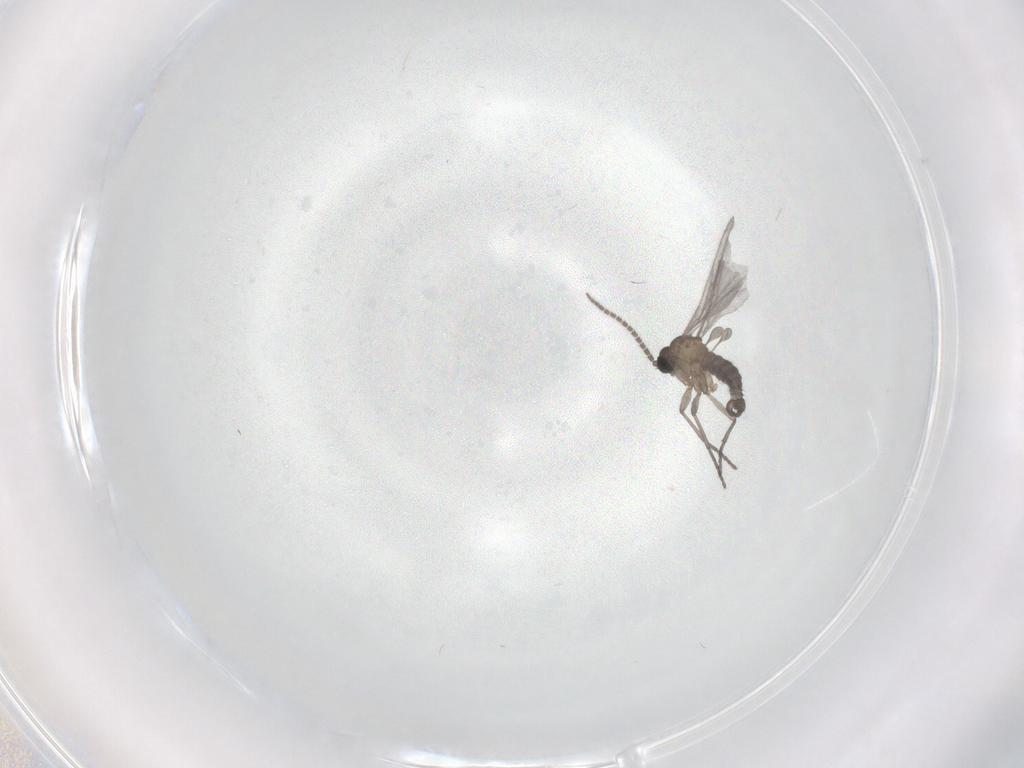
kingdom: Animalia
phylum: Arthropoda
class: Insecta
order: Diptera
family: Sciaridae
